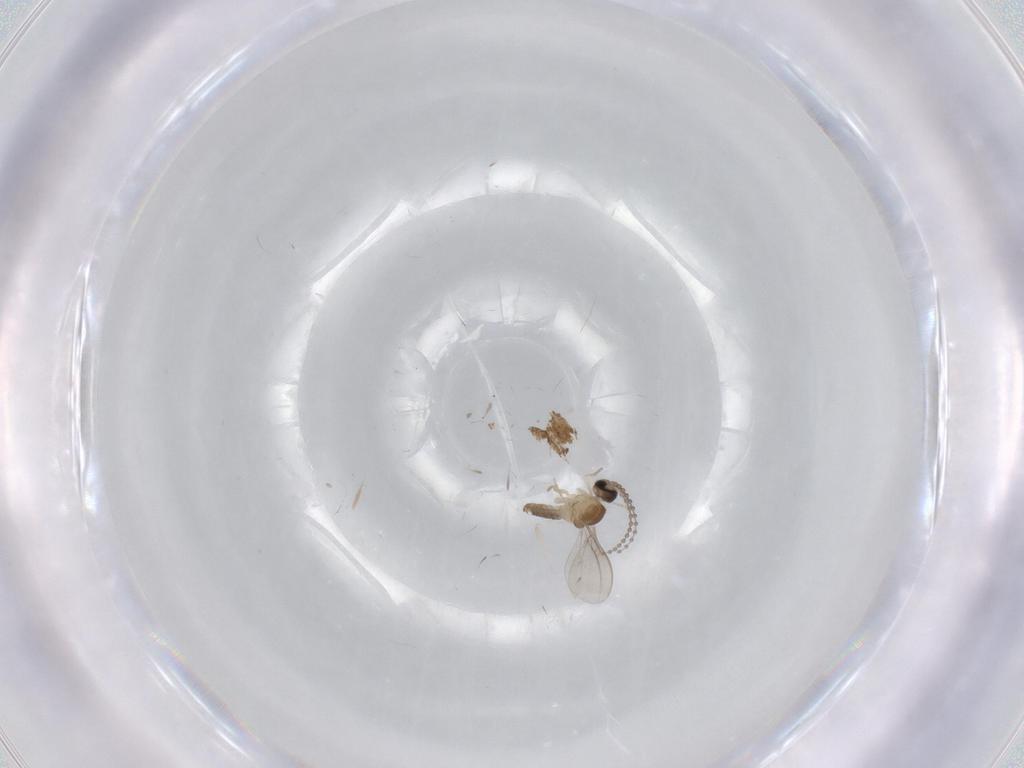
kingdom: Animalia
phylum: Arthropoda
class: Insecta
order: Diptera
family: Cecidomyiidae
